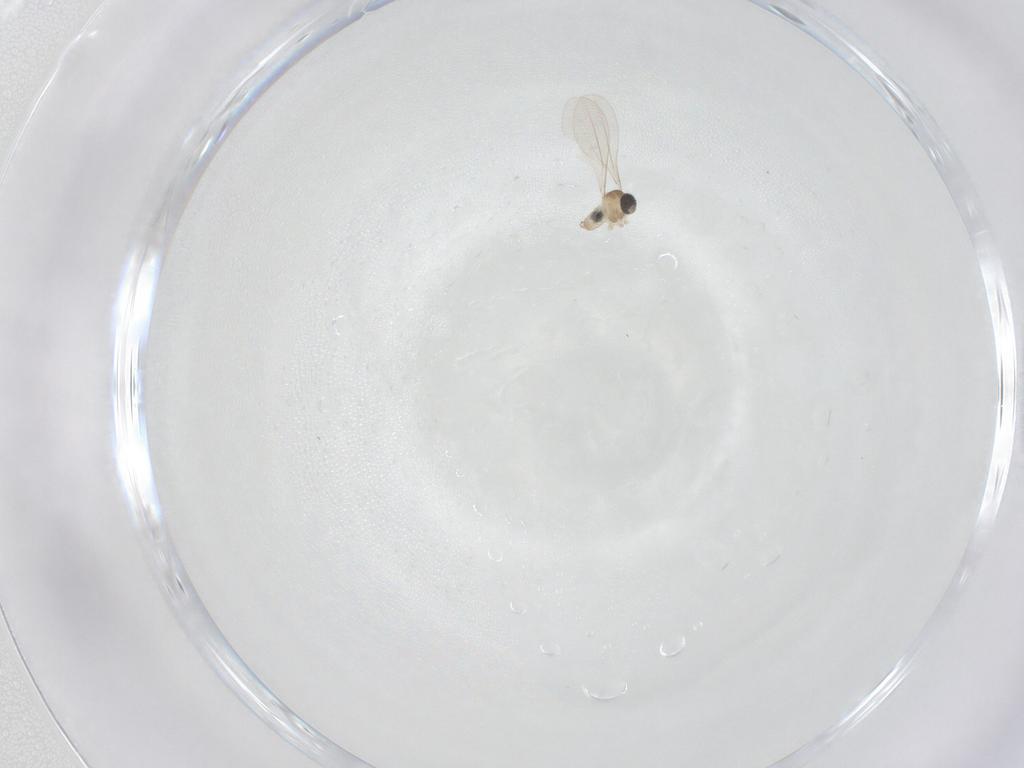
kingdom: Animalia
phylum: Arthropoda
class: Insecta
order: Diptera
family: Cecidomyiidae
